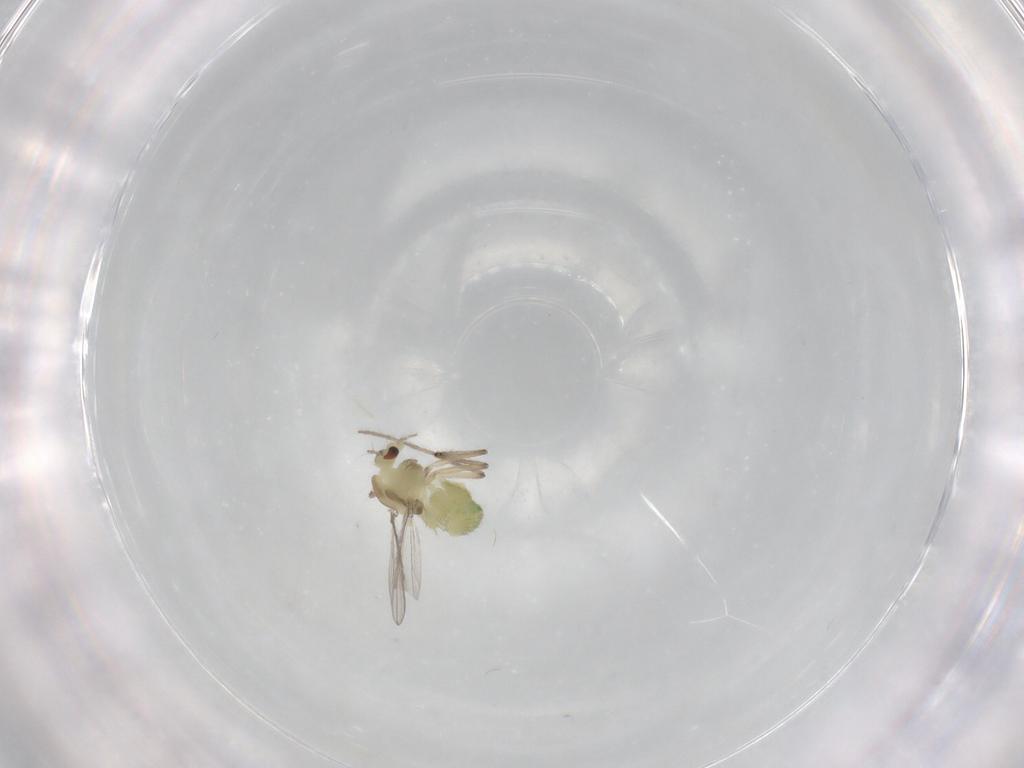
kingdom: Animalia
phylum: Arthropoda
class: Insecta
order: Diptera
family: Chironomidae
